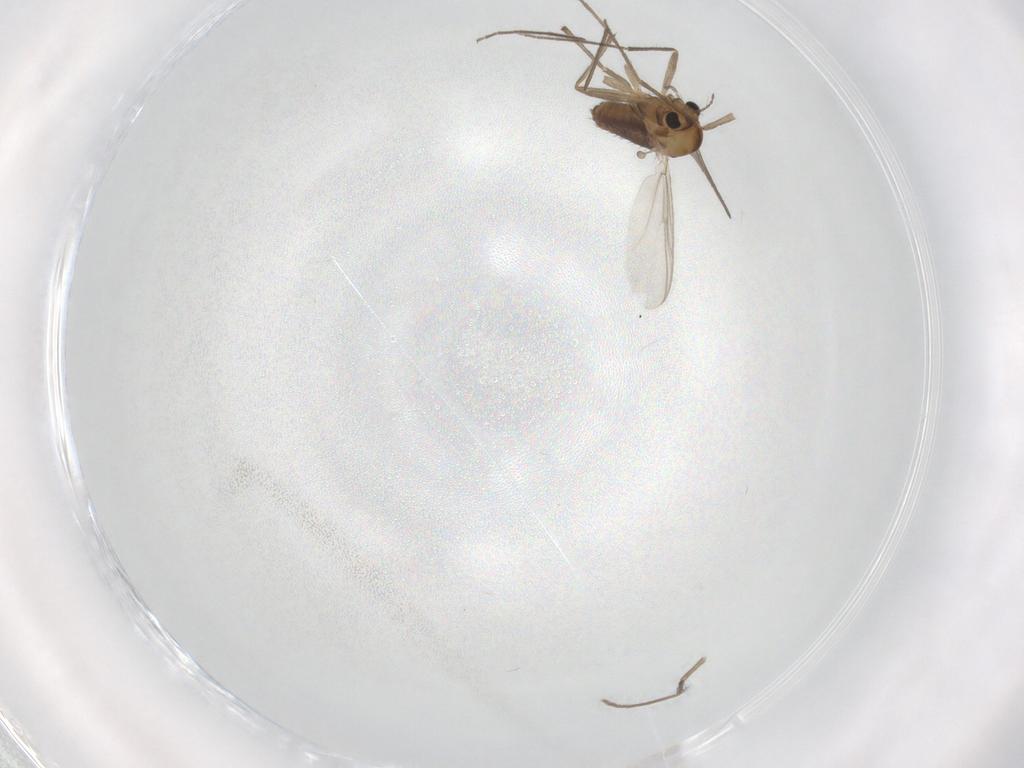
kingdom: Animalia
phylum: Arthropoda
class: Insecta
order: Diptera
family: Chironomidae
